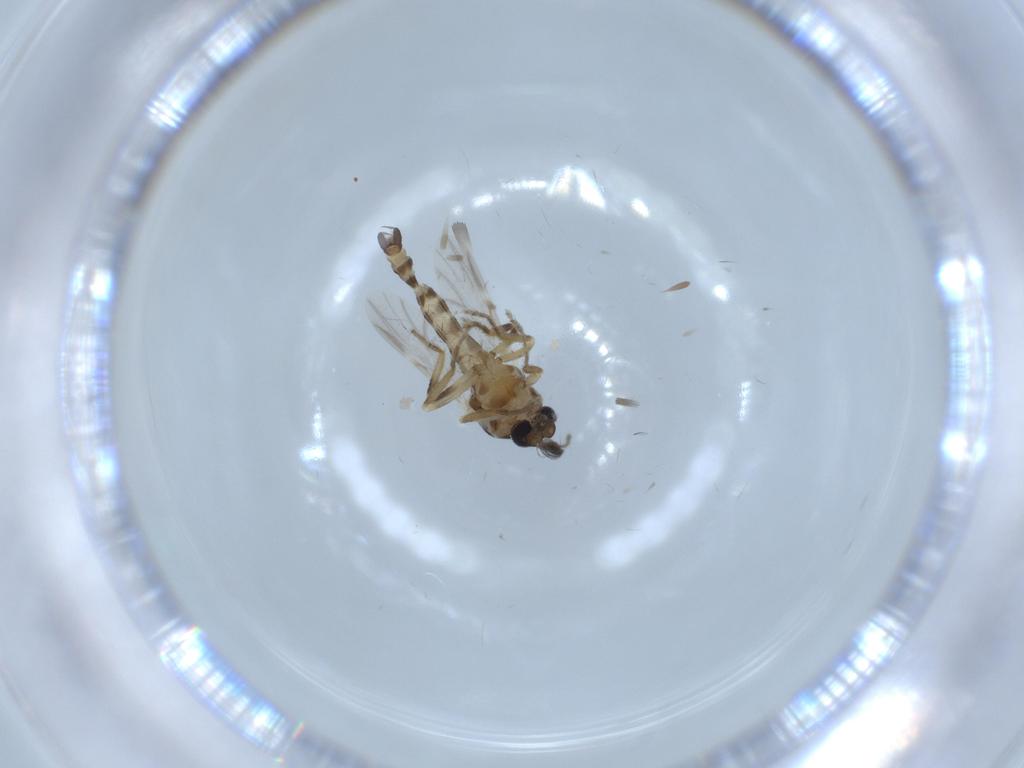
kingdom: Animalia
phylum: Arthropoda
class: Insecta
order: Diptera
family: Ceratopogonidae
